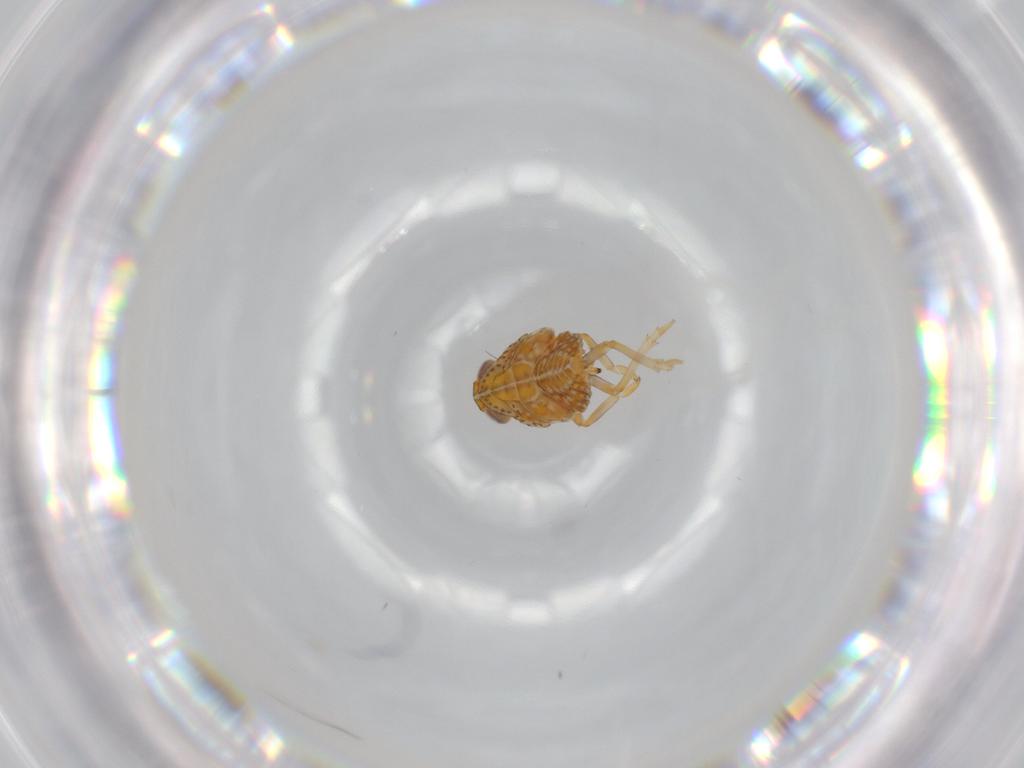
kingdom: Animalia
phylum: Arthropoda
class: Insecta
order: Hemiptera
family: Issidae
